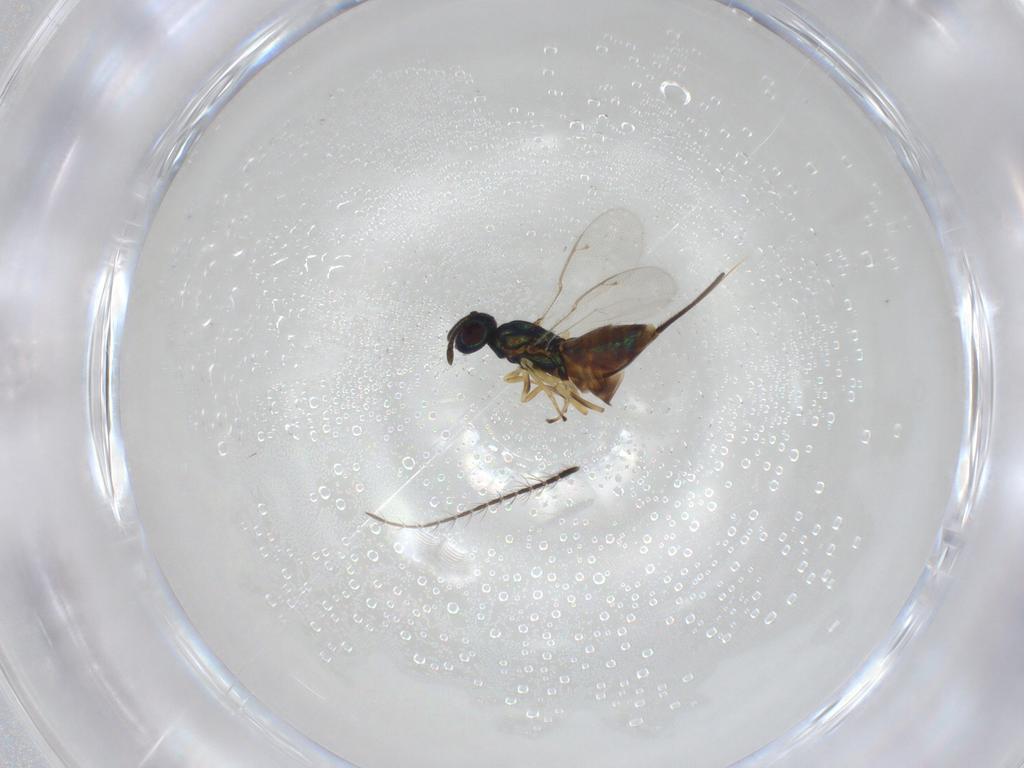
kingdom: Animalia
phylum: Arthropoda
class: Insecta
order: Hymenoptera
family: Eupelmidae
